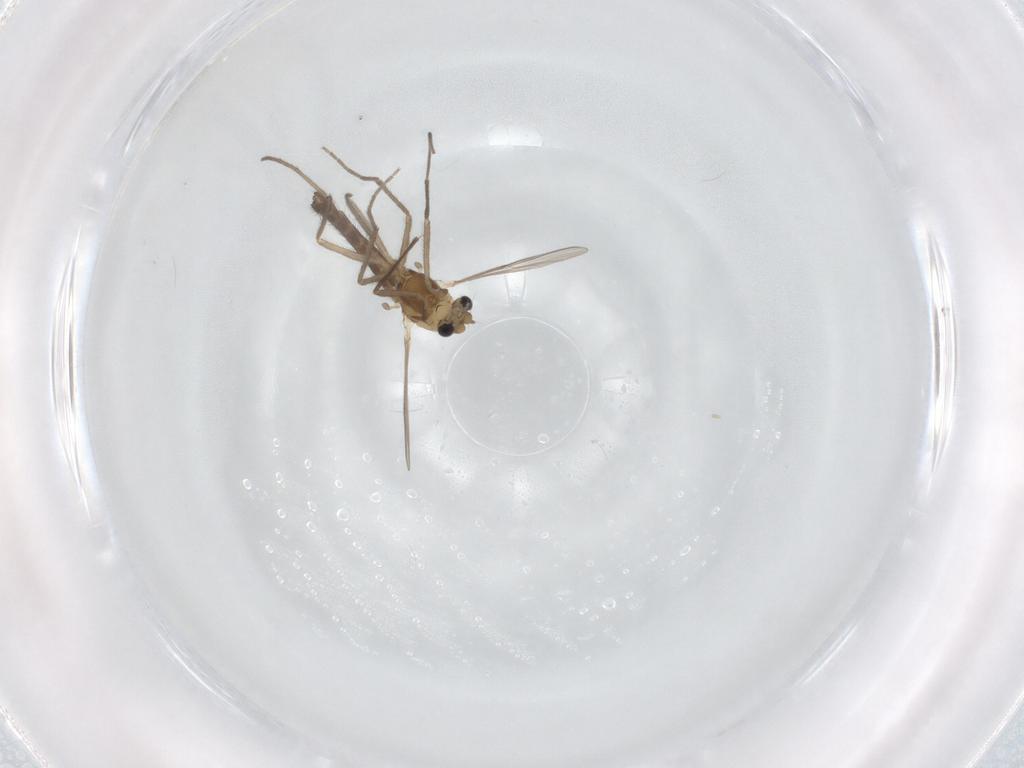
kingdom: Animalia
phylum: Arthropoda
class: Insecta
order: Diptera
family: Chironomidae
